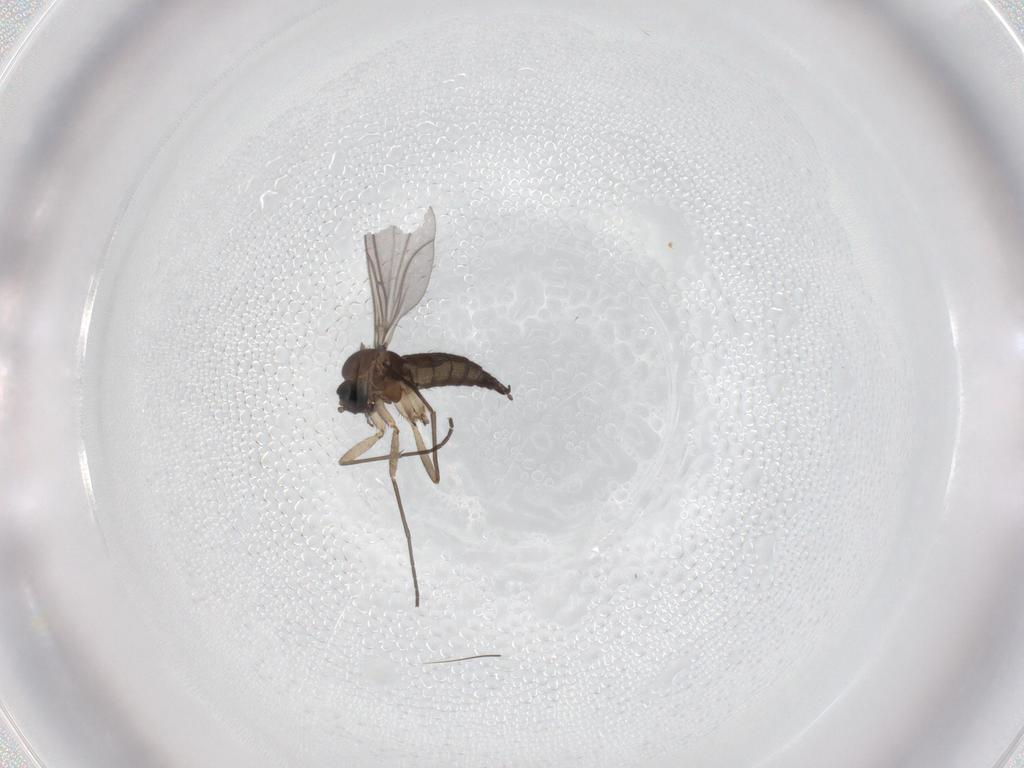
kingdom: Animalia
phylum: Arthropoda
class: Insecta
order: Diptera
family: Sciaridae
